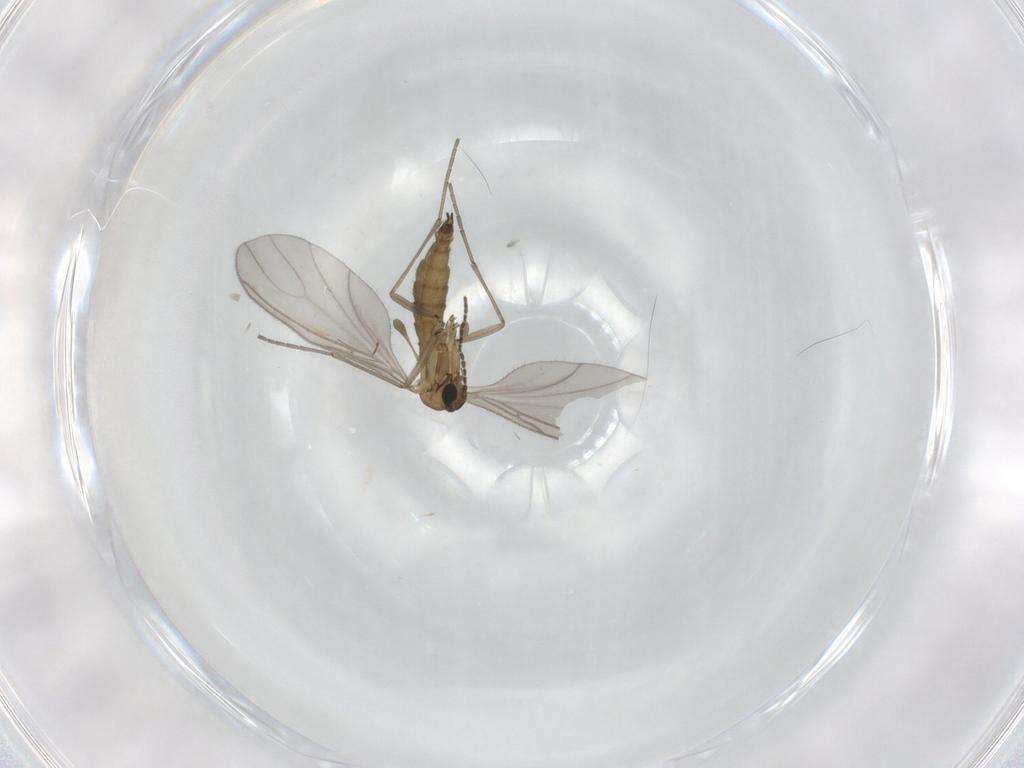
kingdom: Animalia
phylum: Arthropoda
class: Insecta
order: Diptera
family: Sciaridae
